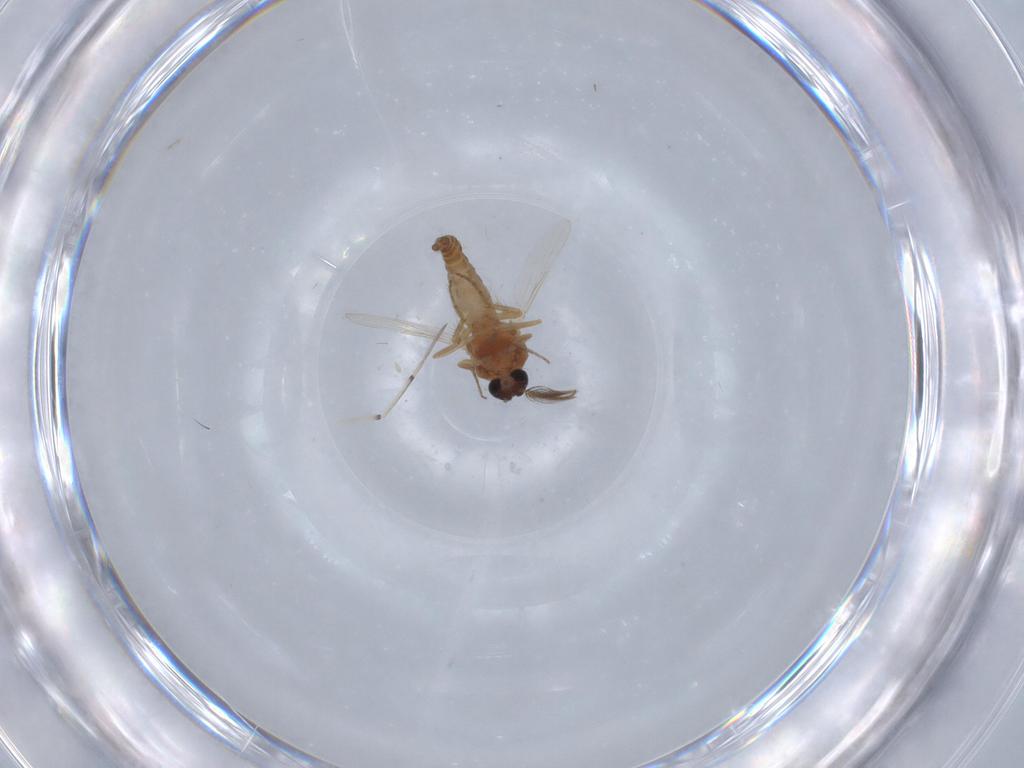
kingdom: Animalia
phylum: Arthropoda
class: Insecta
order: Diptera
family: Ceratopogonidae
